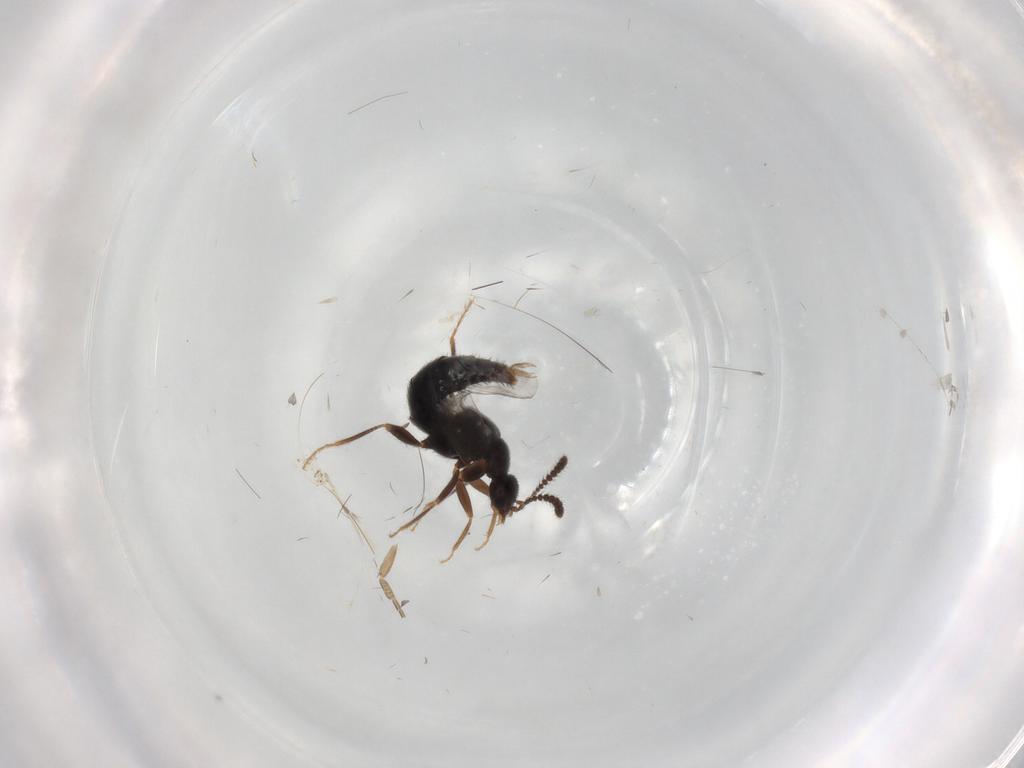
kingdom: Animalia
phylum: Arthropoda
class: Insecta
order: Coleoptera
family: Staphylinidae
